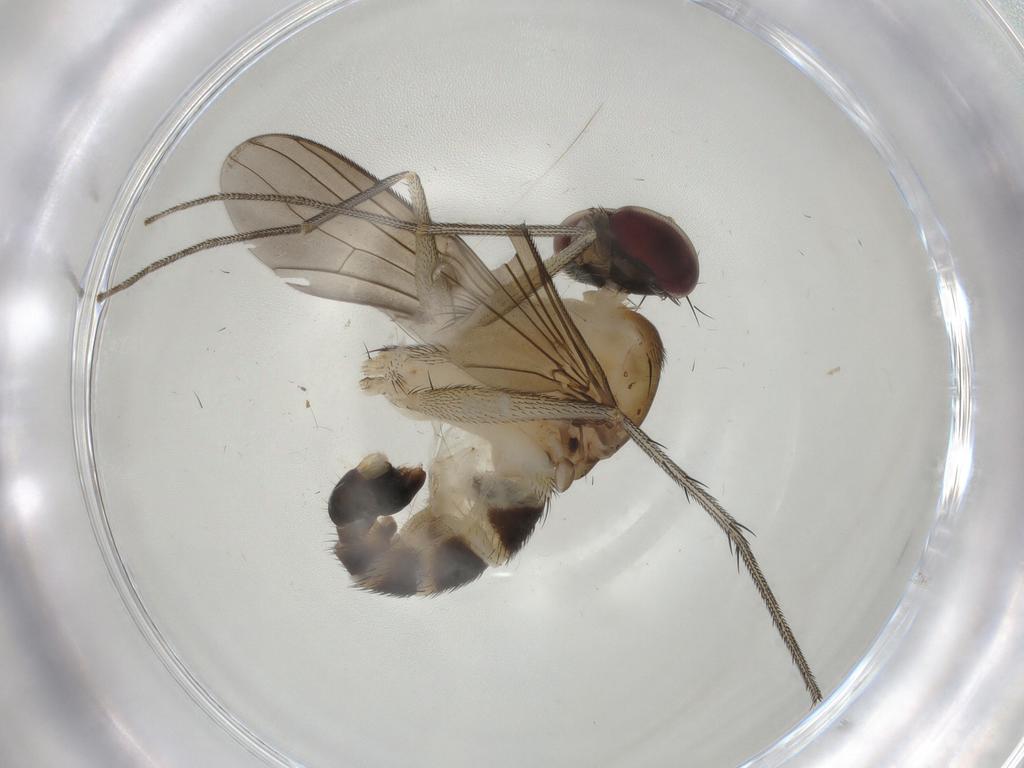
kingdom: Animalia
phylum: Arthropoda
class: Insecta
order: Diptera
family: Dolichopodidae
